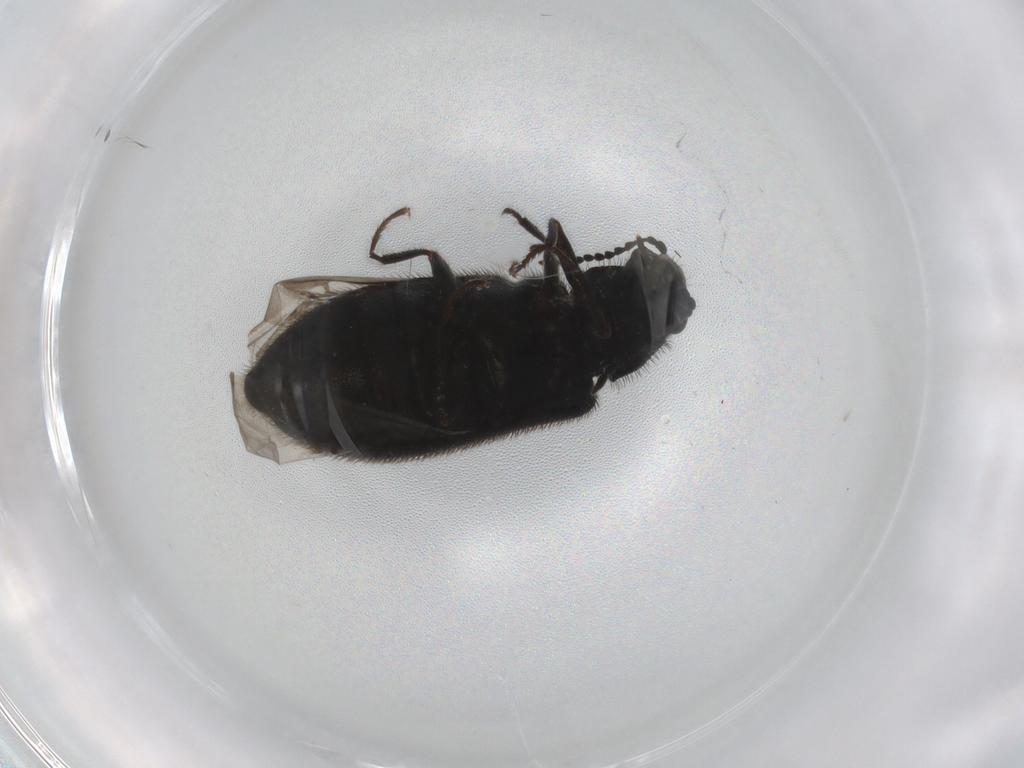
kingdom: Animalia
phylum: Arthropoda
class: Insecta
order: Coleoptera
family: Melyridae
